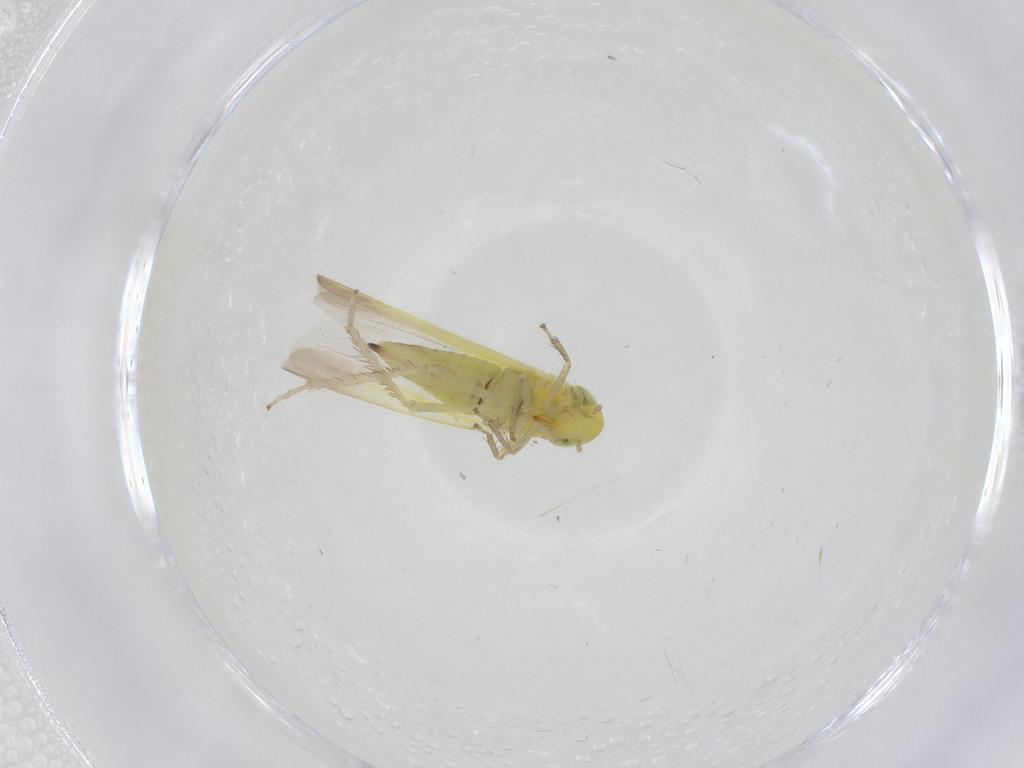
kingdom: Animalia
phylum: Arthropoda
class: Insecta
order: Hemiptera
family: Cicadellidae
